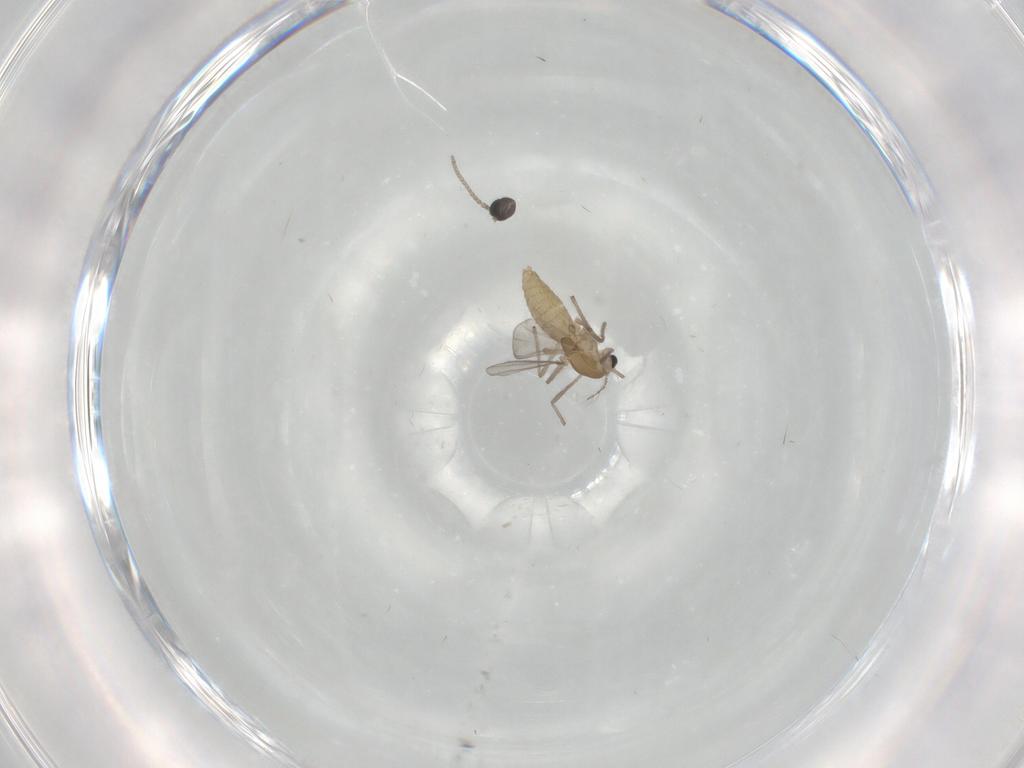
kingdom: Animalia
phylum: Arthropoda
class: Insecta
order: Diptera
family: Chironomidae
